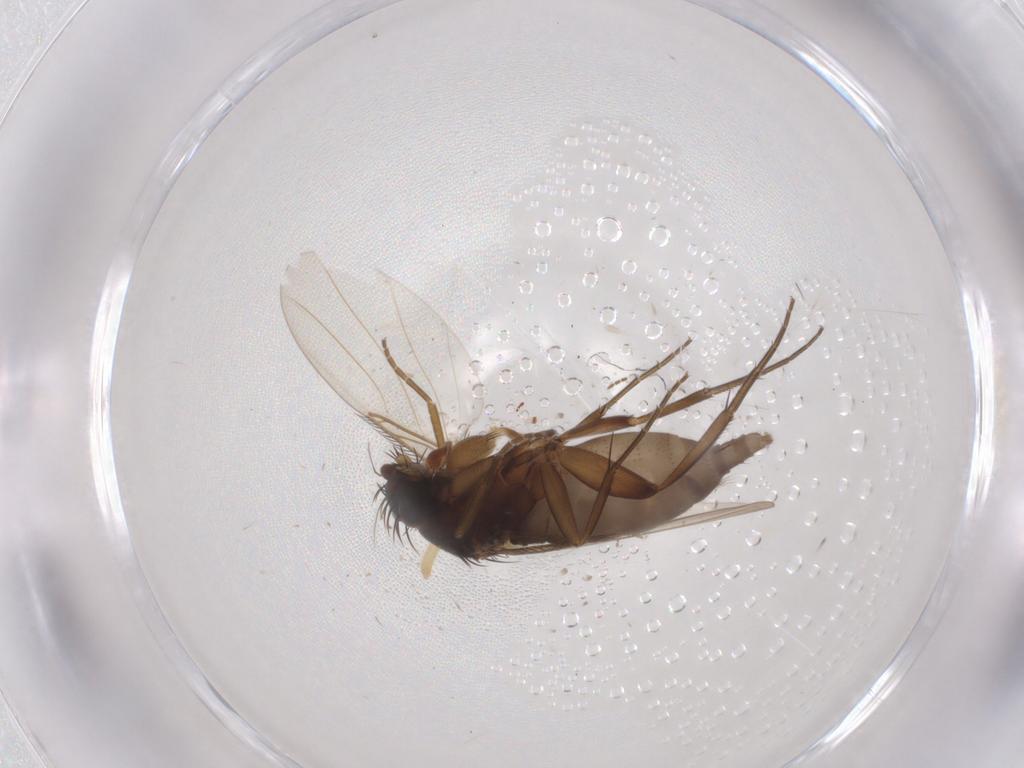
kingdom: Animalia
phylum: Arthropoda
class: Insecta
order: Diptera
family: Phoridae
